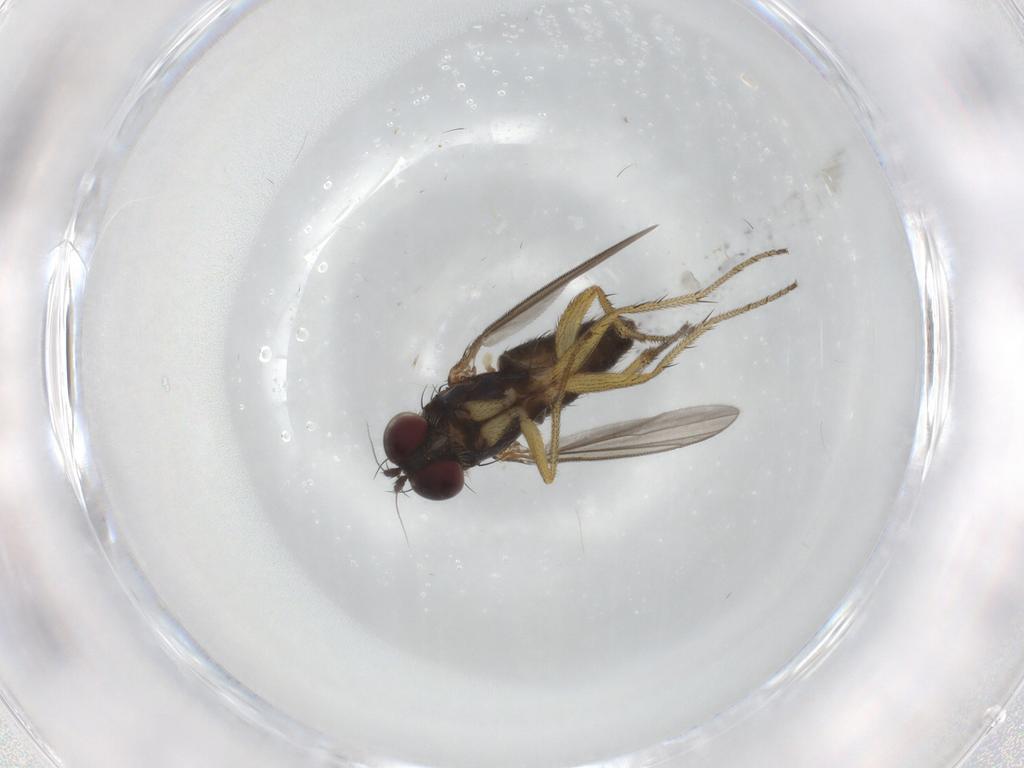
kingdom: Animalia
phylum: Arthropoda
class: Insecta
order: Diptera
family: Dolichopodidae
